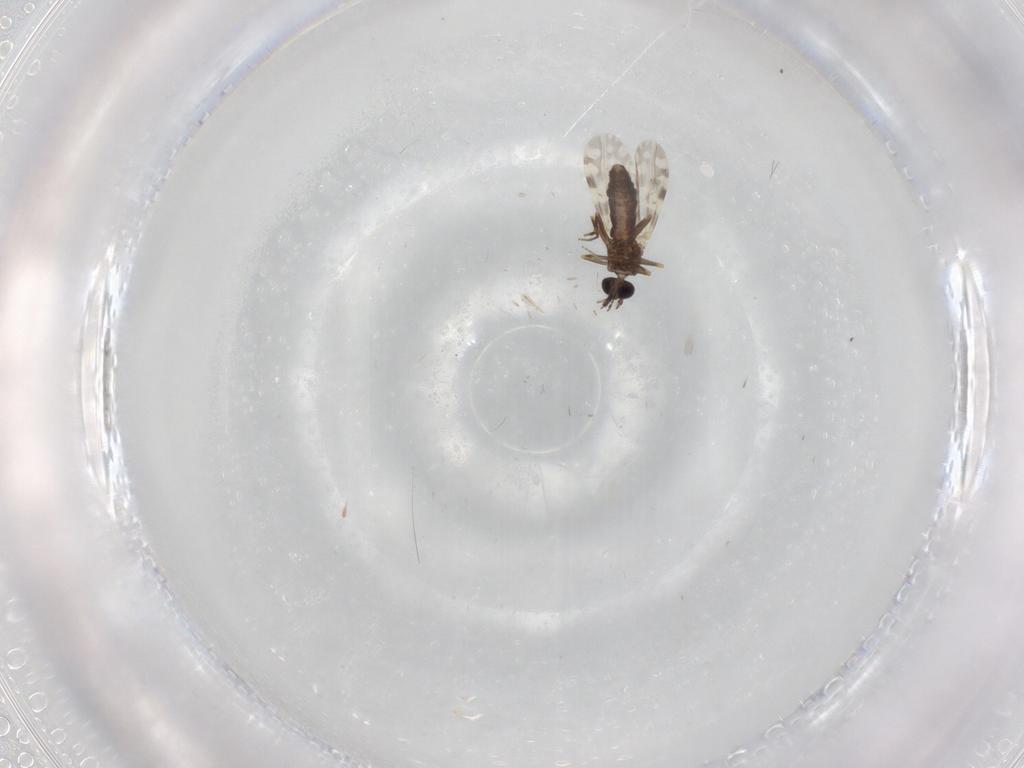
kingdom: Animalia
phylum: Arthropoda
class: Insecta
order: Diptera
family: Ceratopogonidae
